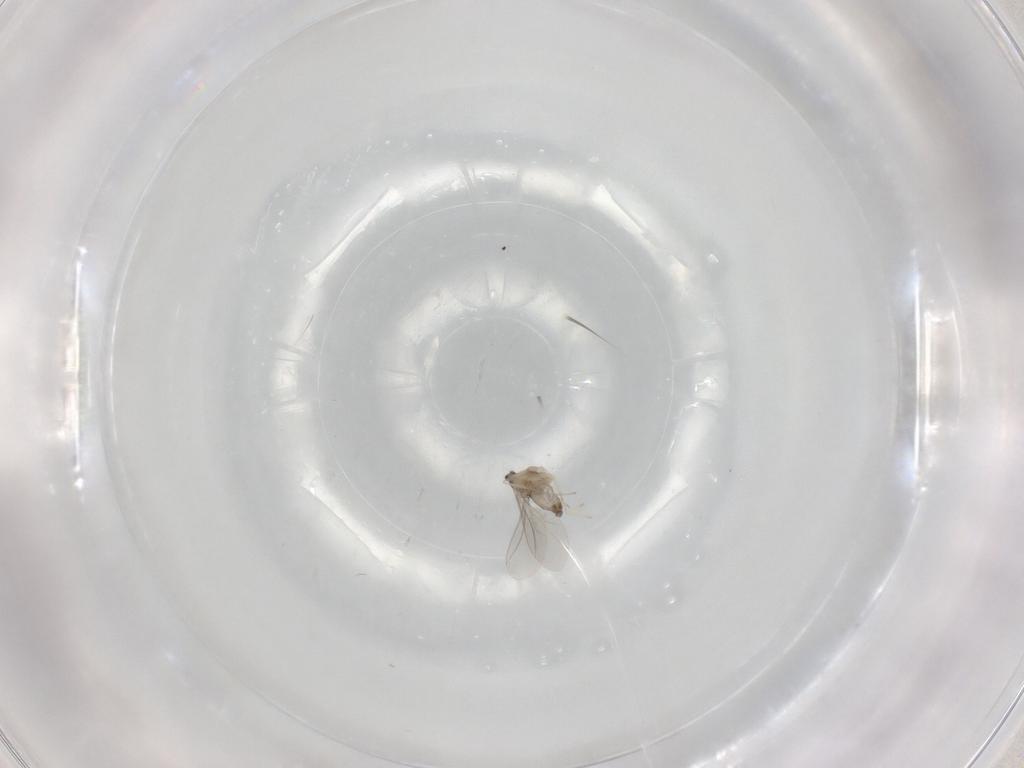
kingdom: Animalia
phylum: Arthropoda
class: Insecta
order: Diptera
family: Cecidomyiidae
